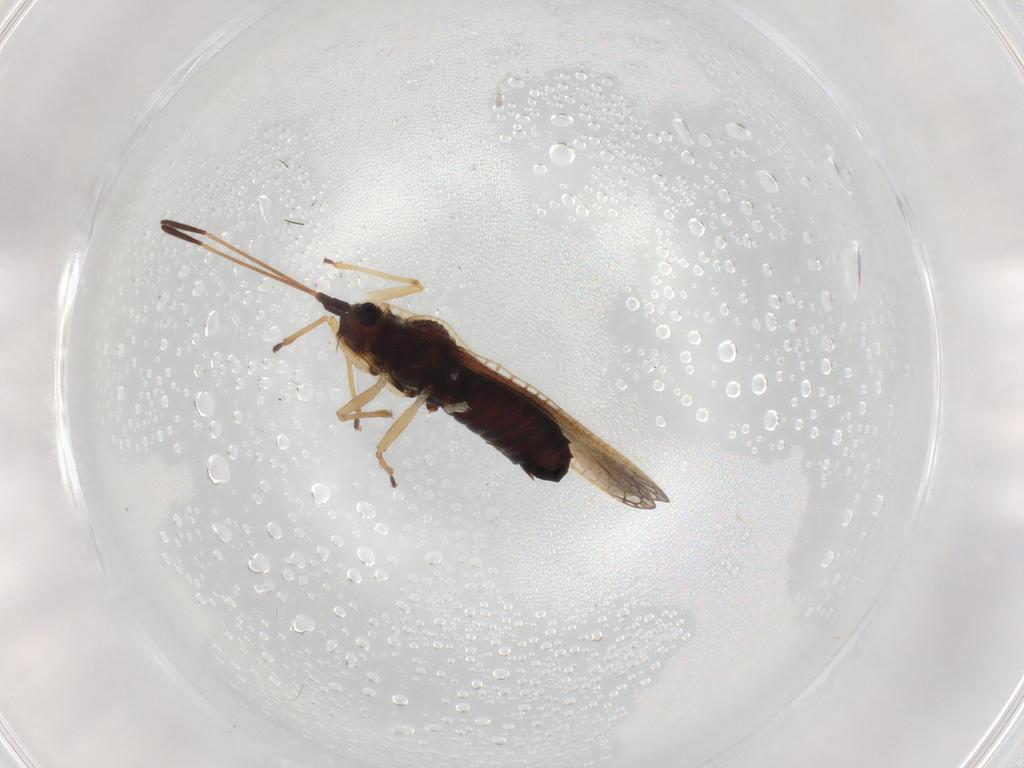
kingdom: Animalia
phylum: Arthropoda
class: Insecta
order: Hemiptera
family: Tingidae
